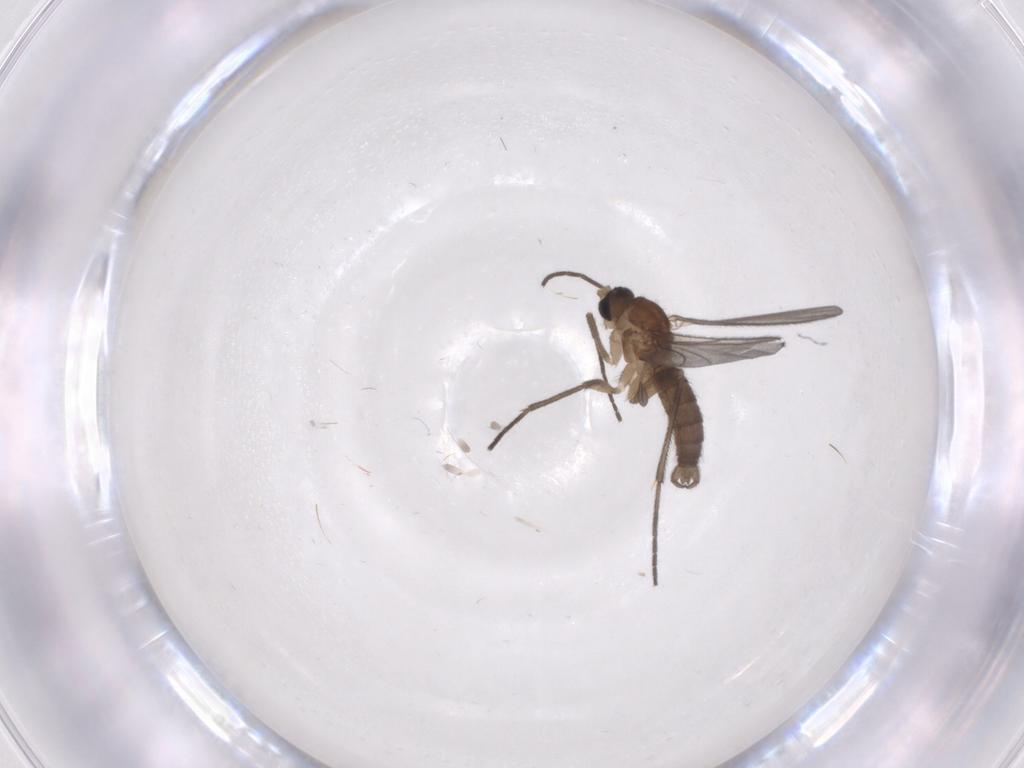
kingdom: Animalia
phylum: Arthropoda
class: Insecta
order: Diptera
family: Sciaridae
